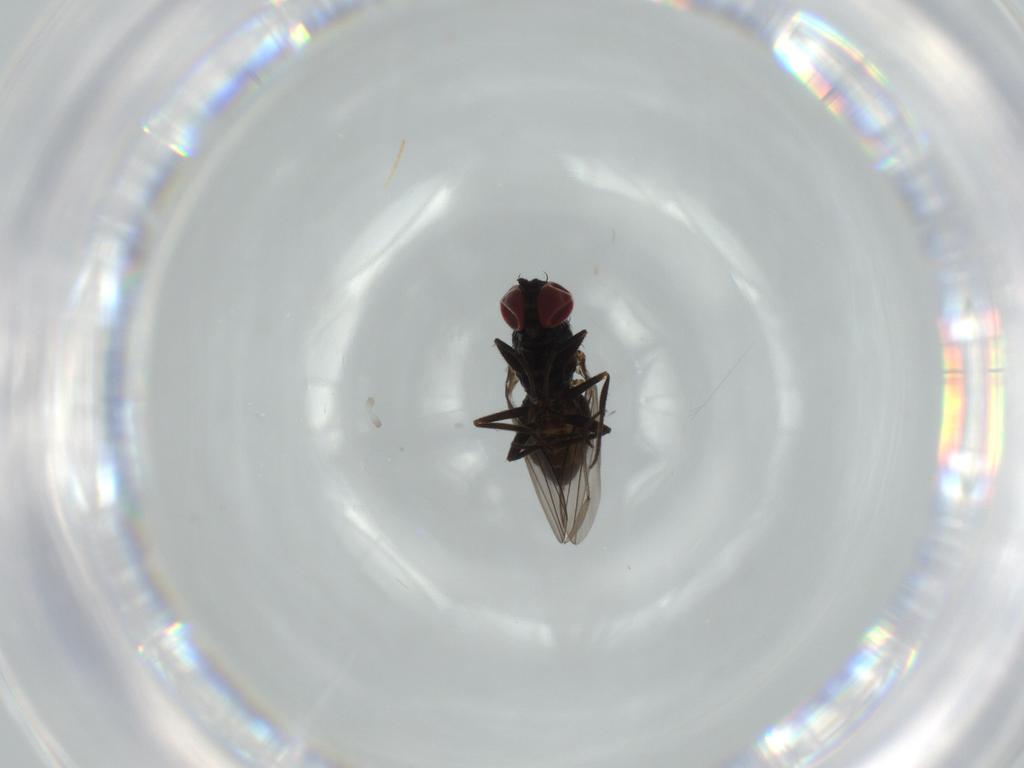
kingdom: Animalia
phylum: Arthropoda
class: Insecta
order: Diptera
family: Dolichopodidae
